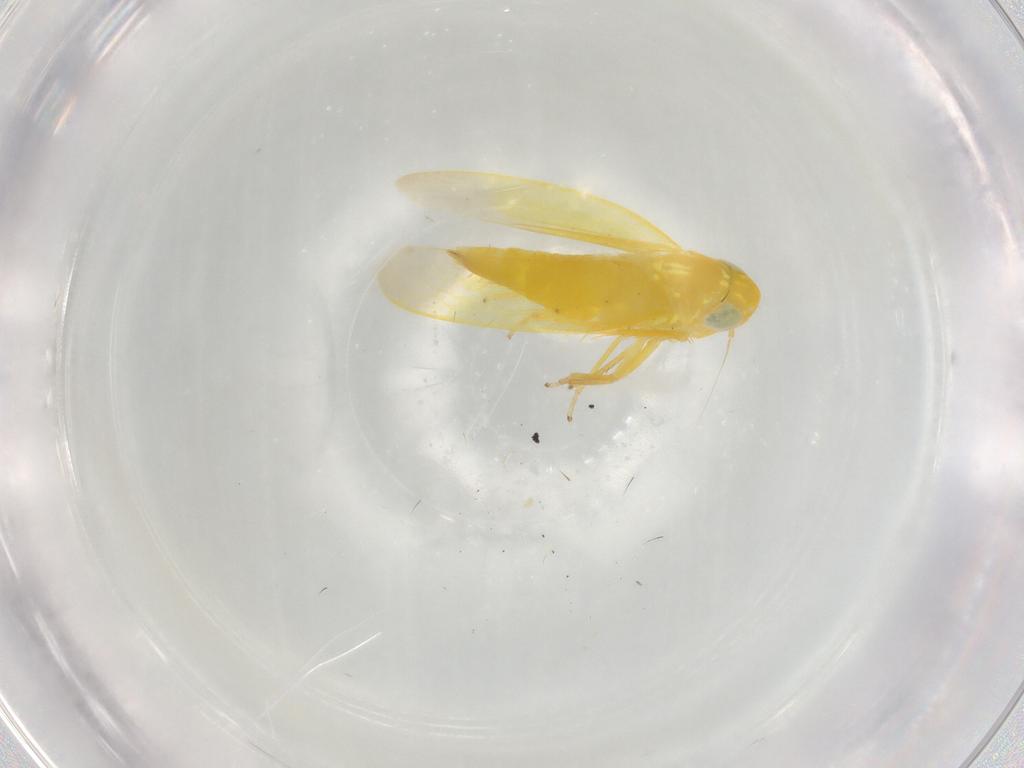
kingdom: Animalia
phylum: Arthropoda
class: Insecta
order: Hemiptera
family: Cicadellidae
